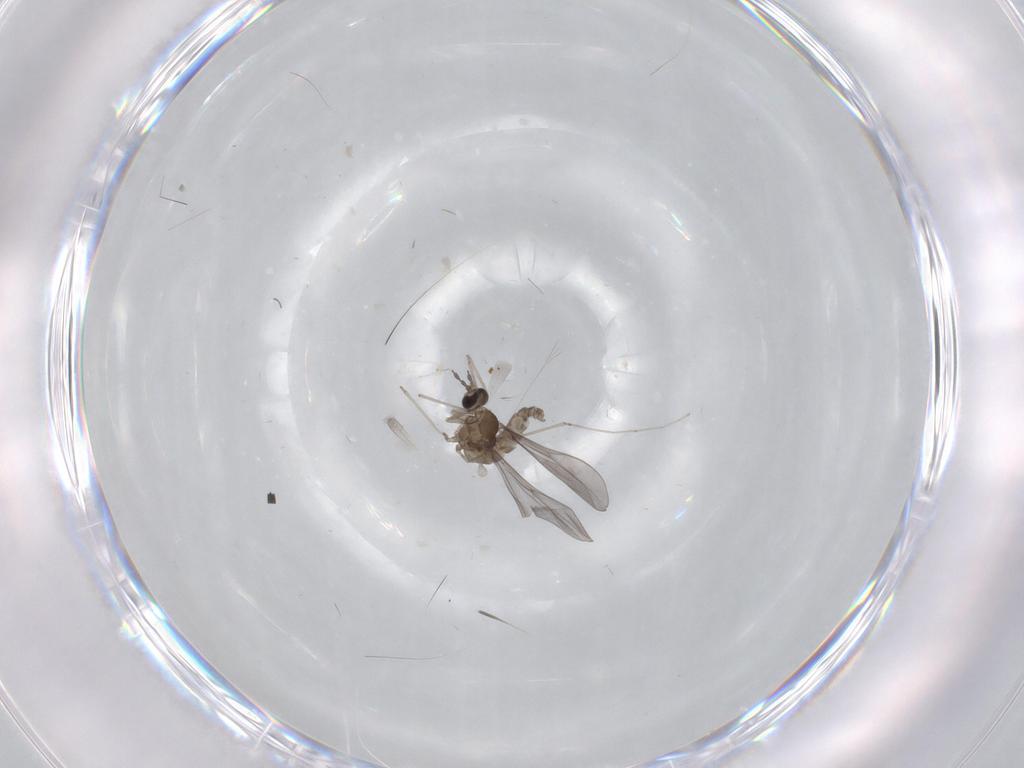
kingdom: Animalia
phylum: Arthropoda
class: Insecta
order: Diptera
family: Cecidomyiidae
